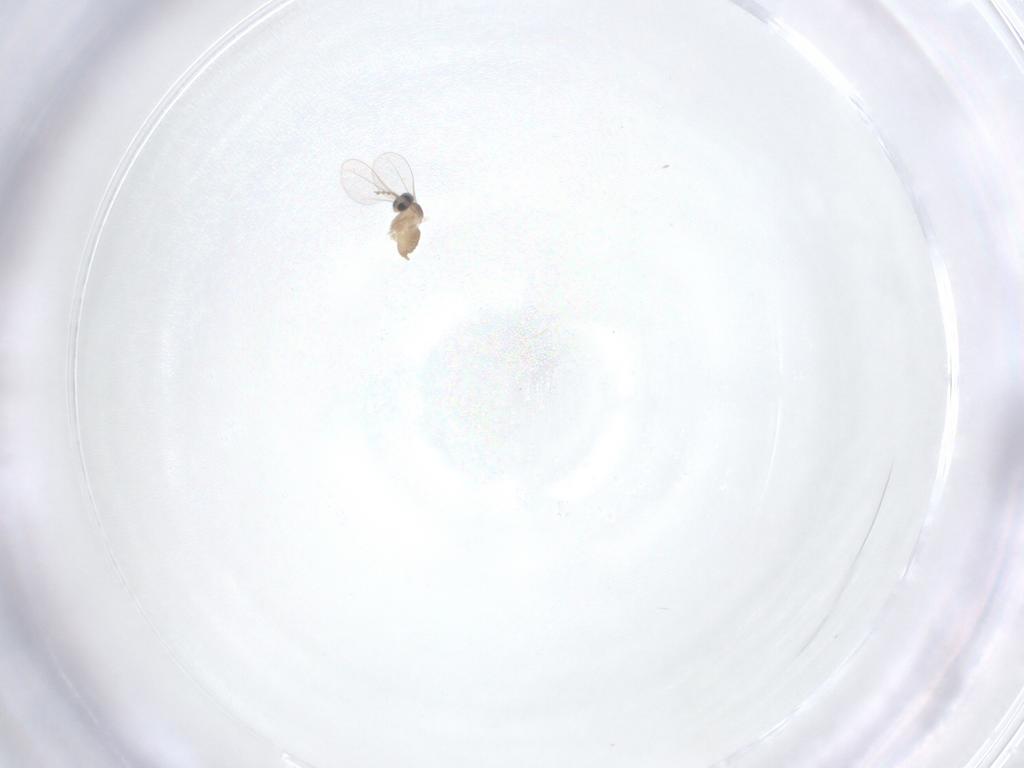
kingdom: Animalia
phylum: Arthropoda
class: Insecta
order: Diptera
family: Cecidomyiidae
